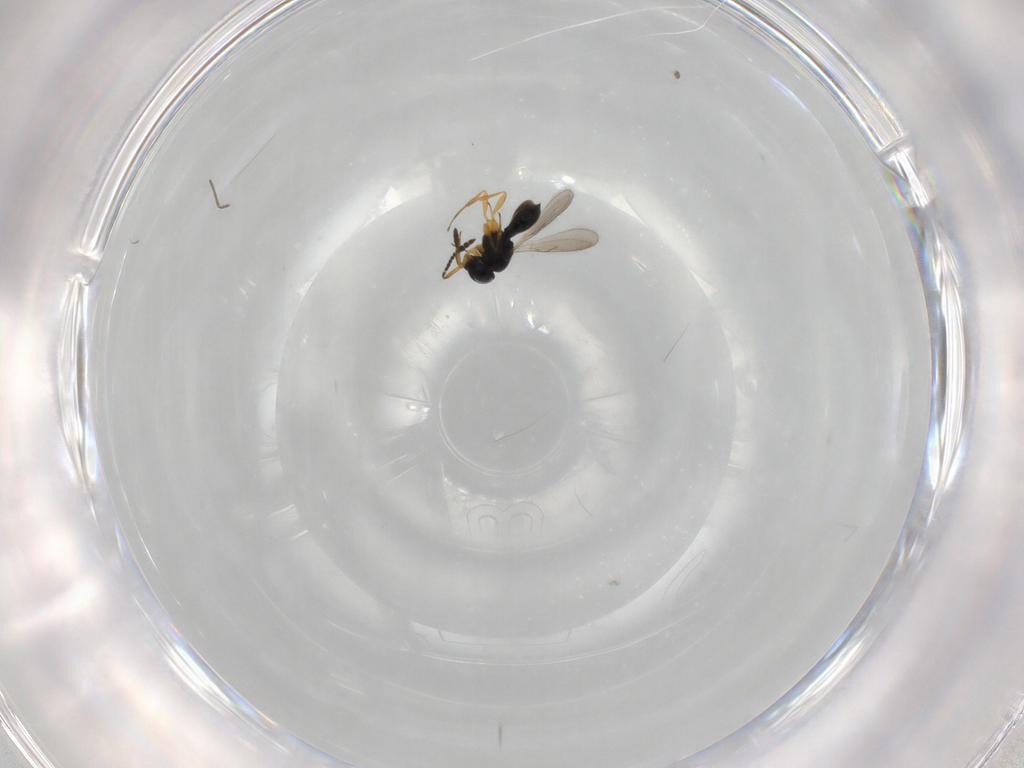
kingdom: Animalia
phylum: Arthropoda
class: Insecta
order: Hymenoptera
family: Scelionidae
